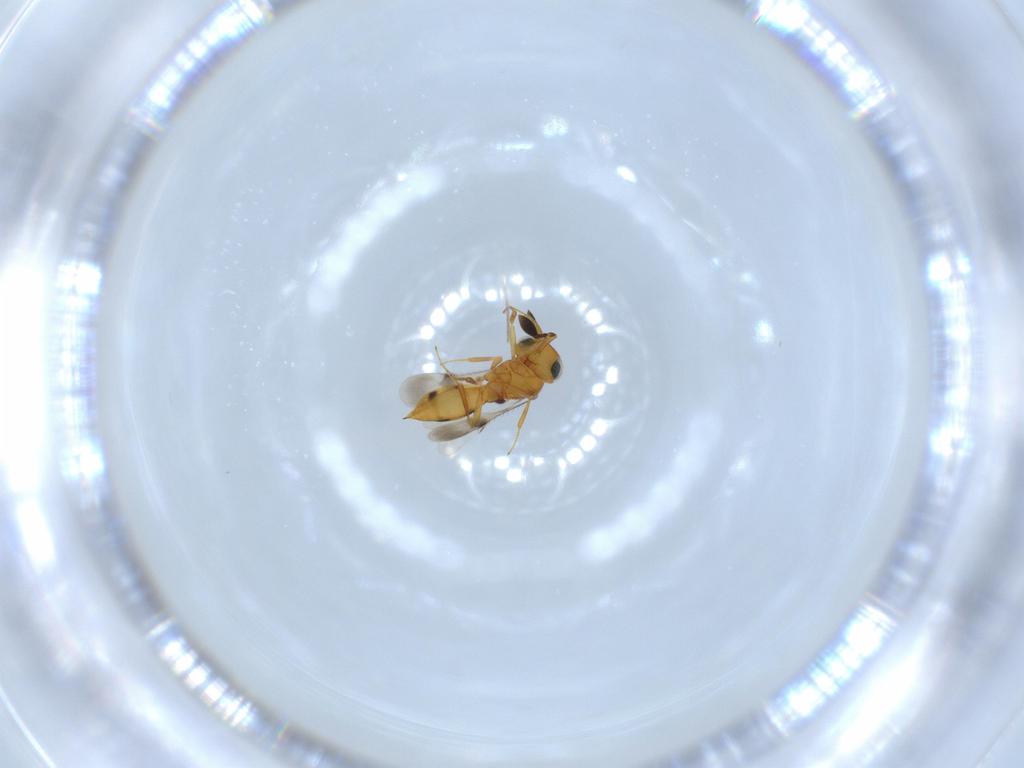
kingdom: Animalia
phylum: Arthropoda
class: Insecta
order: Hymenoptera
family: Scelionidae
